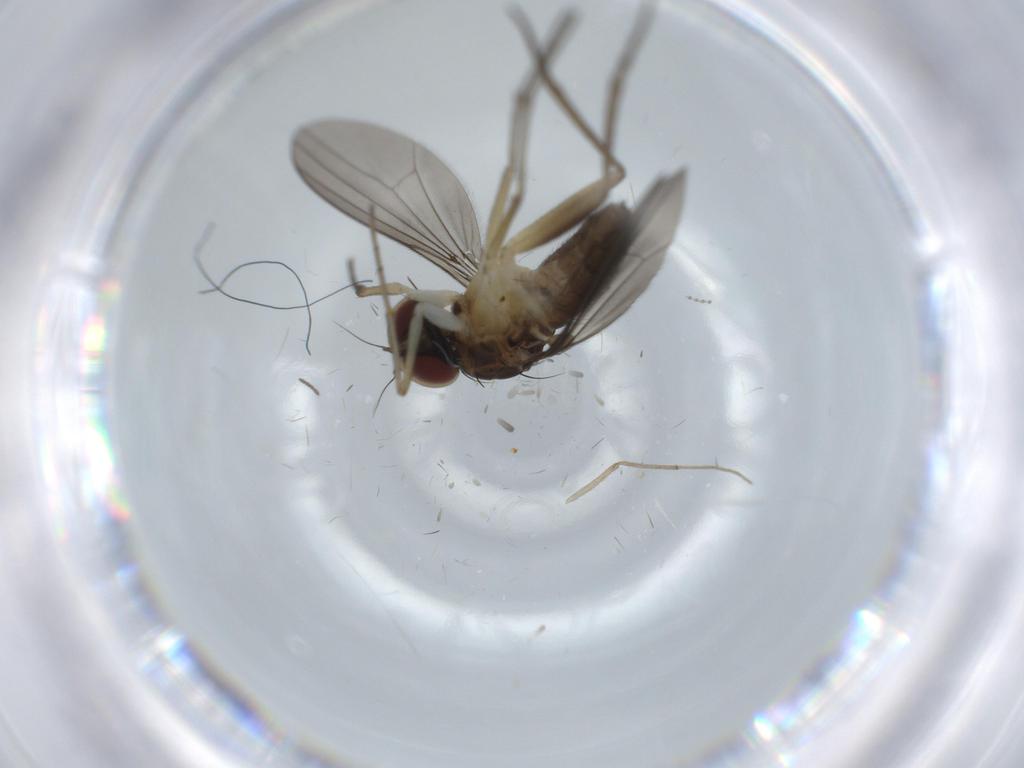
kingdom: Animalia
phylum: Arthropoda
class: Insecta
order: Diptera
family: Dolichopodidae
